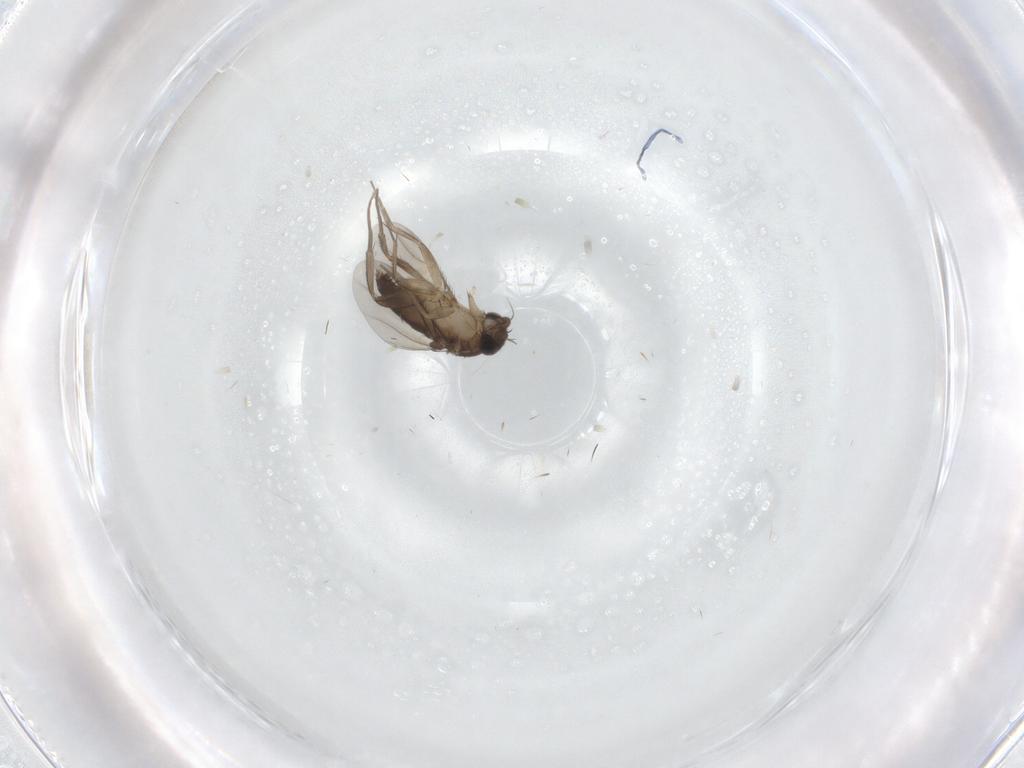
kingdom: Animalia
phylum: Arthropoda
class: Insecta
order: Diptera
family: Phoridae
